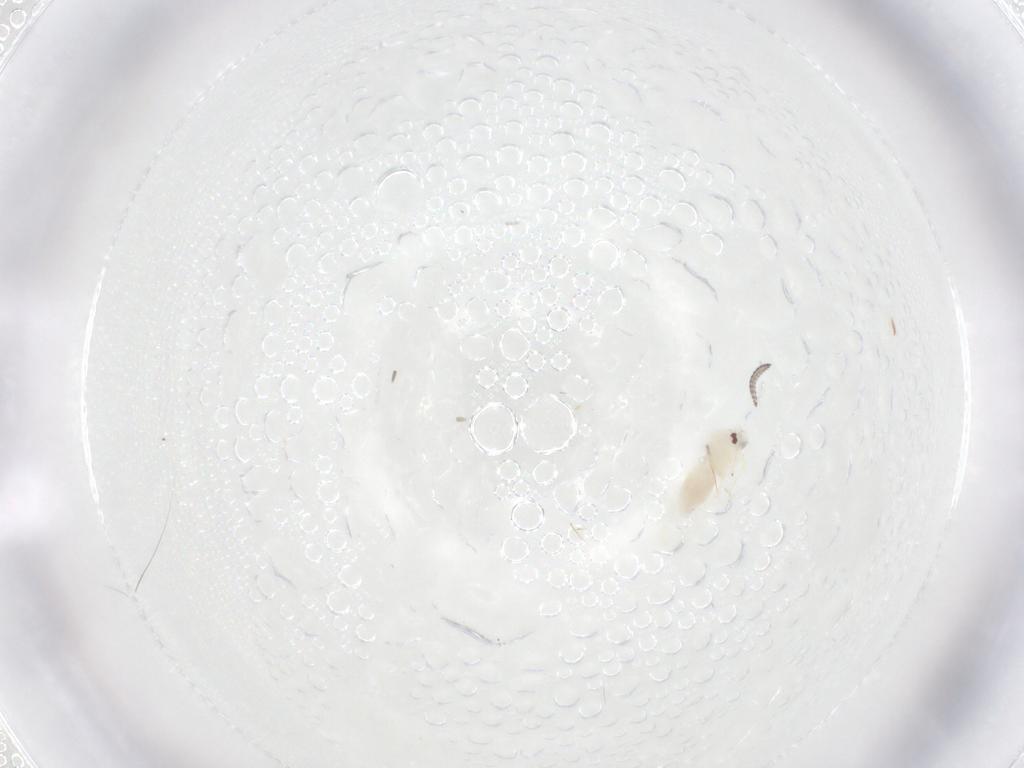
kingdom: Animalia
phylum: Arthropoda
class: Insecta
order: Hemiptera
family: Aleyrodidae
